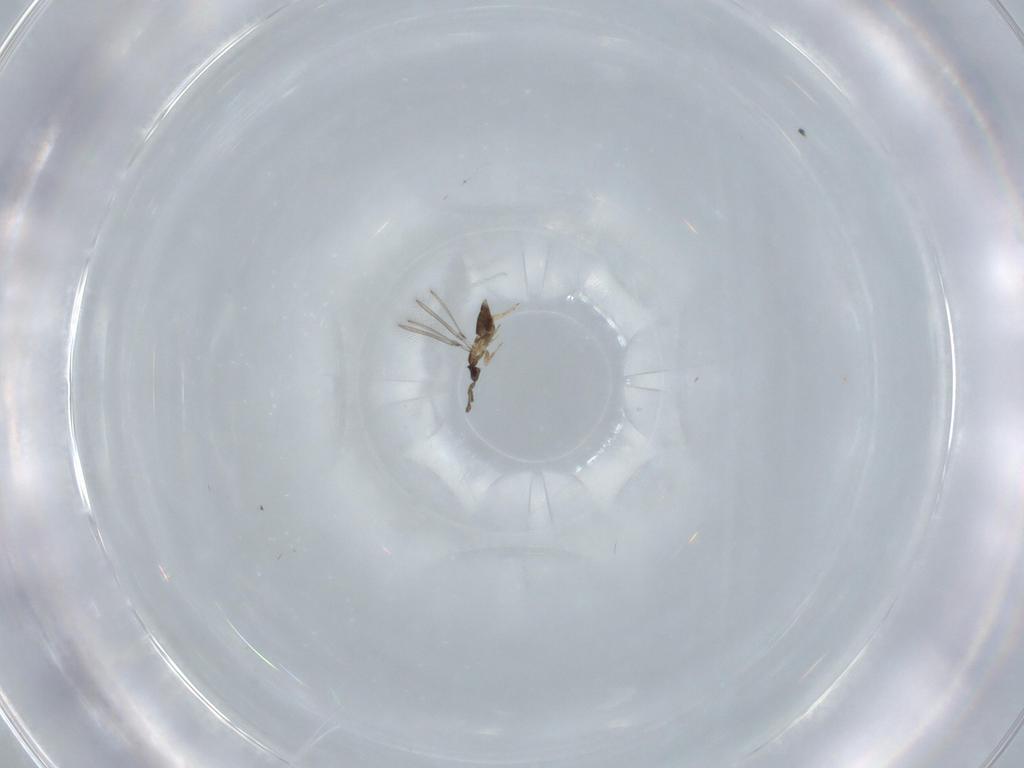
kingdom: Animalia
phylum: Arthropoda
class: Insecta
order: Hymenoptera
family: Mymaridae
